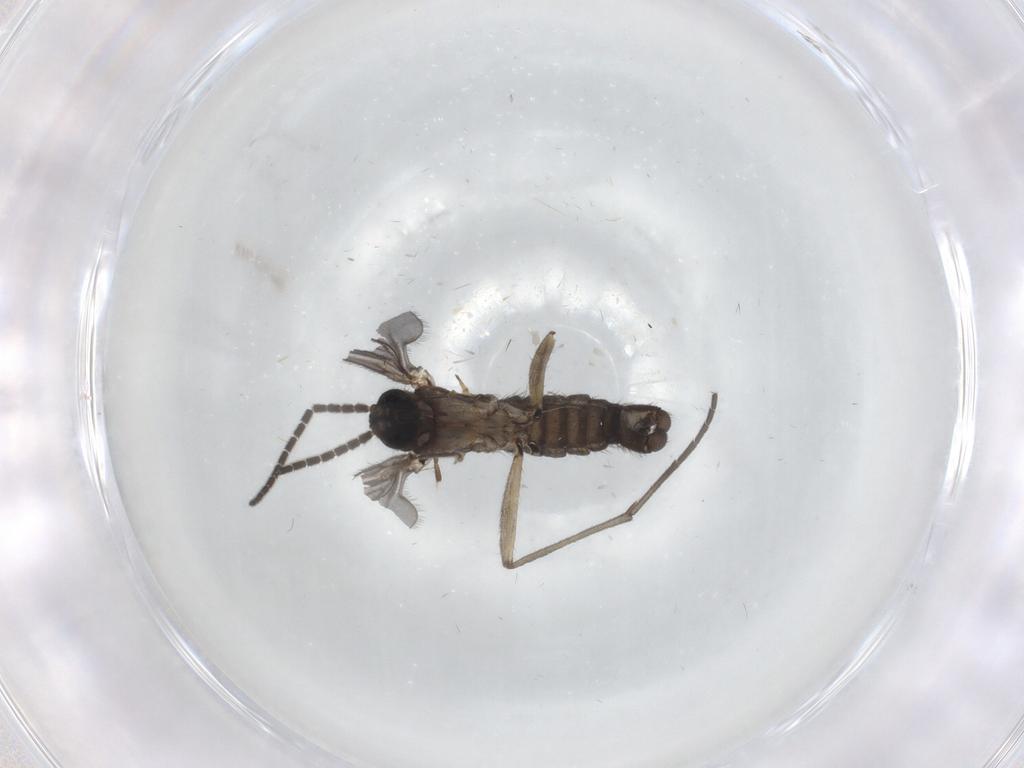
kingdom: Animalia
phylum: Arthropoda
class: Insecta
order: Diptera
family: Sciaridae
